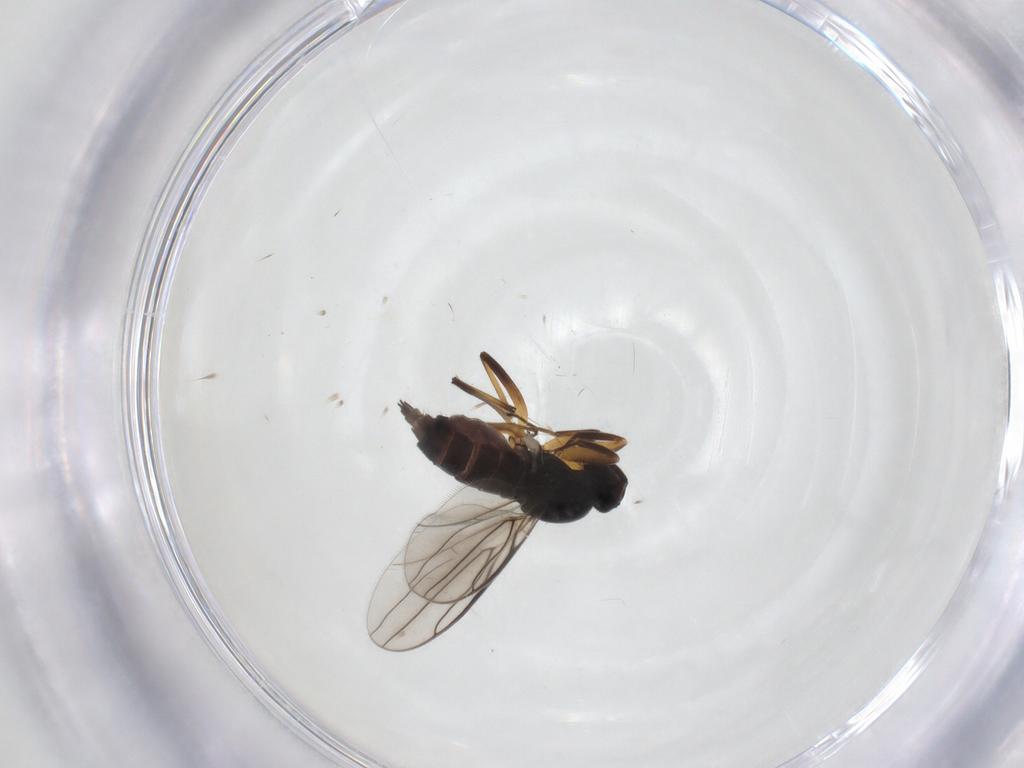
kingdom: Animalia
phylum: Arthropoda
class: Insecta
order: Diptera
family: Hybotidae
